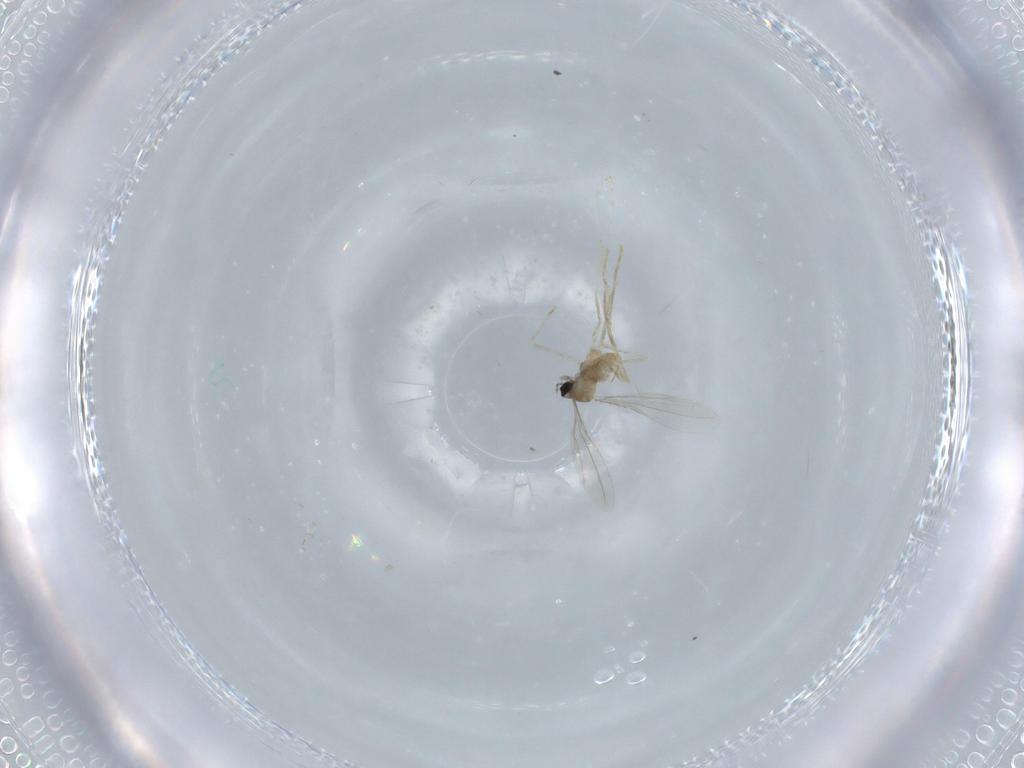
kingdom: Animalia
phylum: Arthropoda
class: Insecta
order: Diptera
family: Cecidomyiidae
